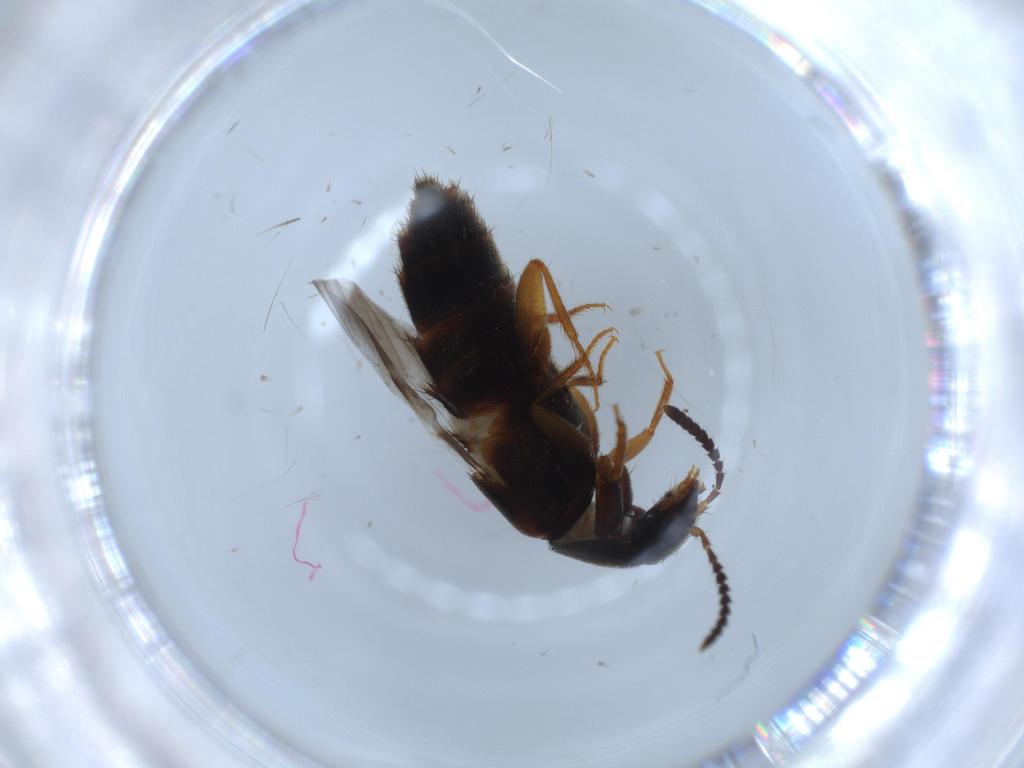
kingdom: Animalia
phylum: Arthropoda
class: Insecta
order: Coleoptera
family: Staphylinidae
